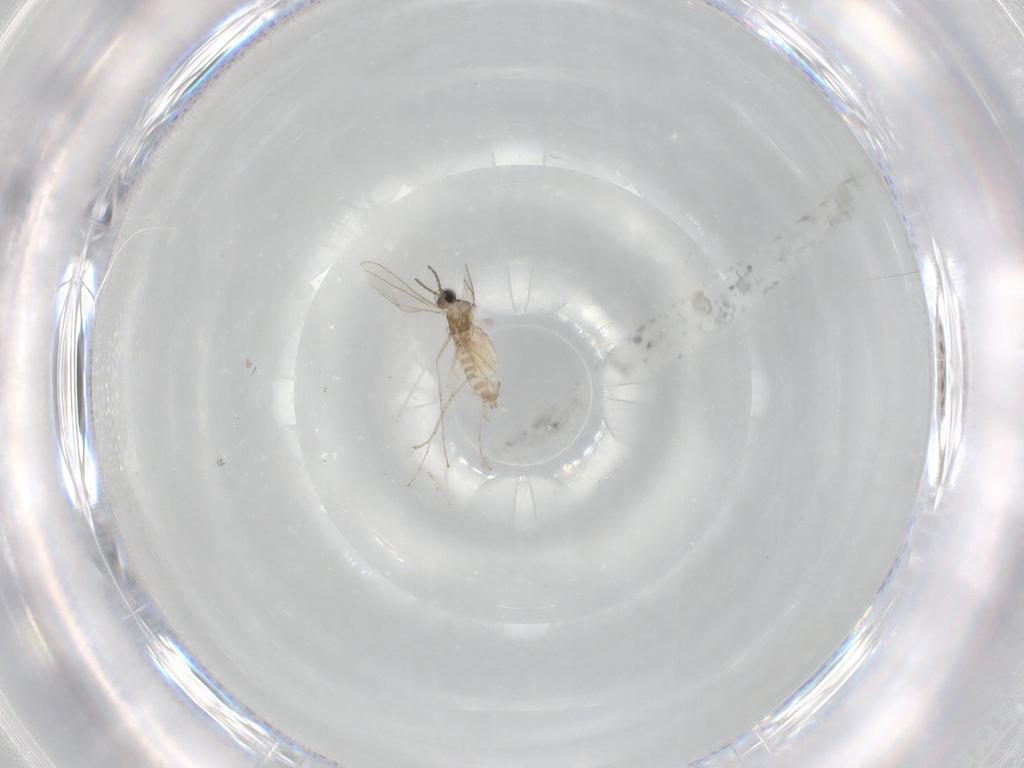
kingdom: Animalia
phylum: Arthropoda
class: Insecta
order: Diptera
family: Cecidomyiidae
